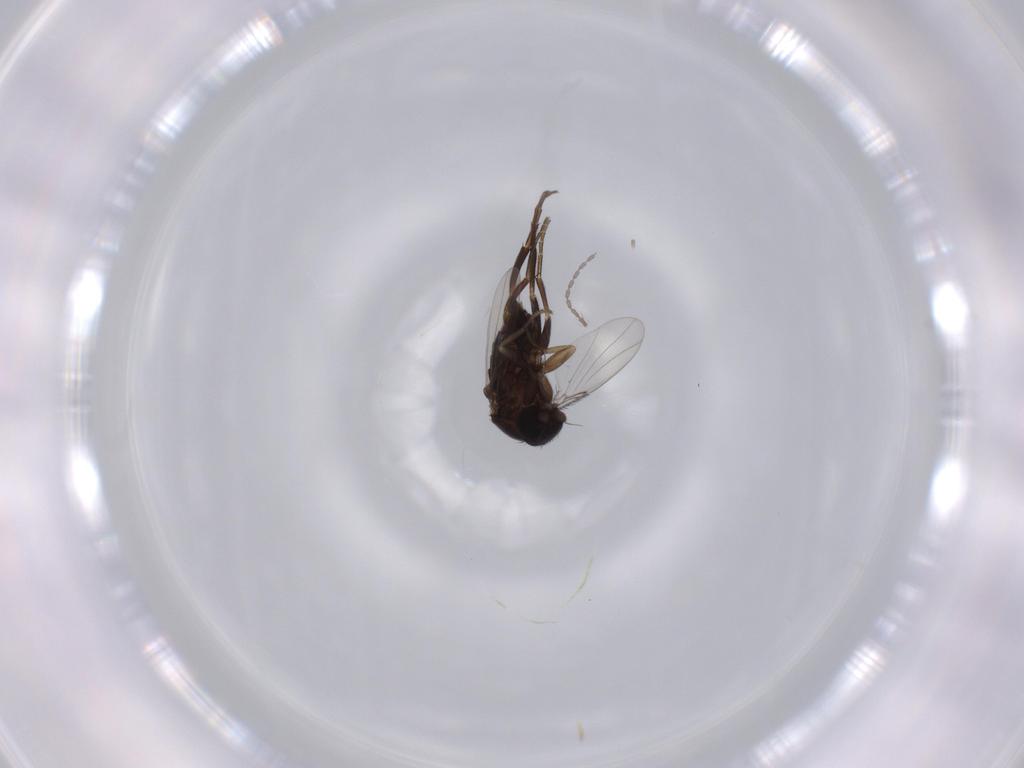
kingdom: Animalia
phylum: Arthropoda
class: Insecta
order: Diptera
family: Phoridae
